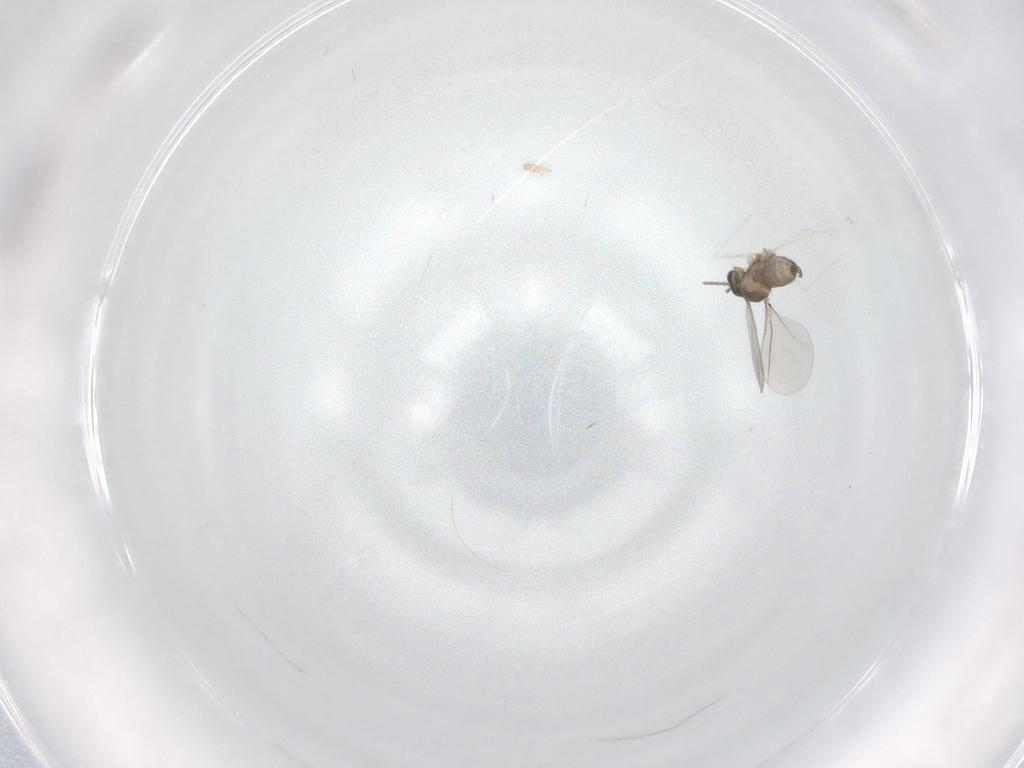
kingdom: Animalia
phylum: Arthropoda
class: Insecta
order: Diptera
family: Cecidomyiidae
